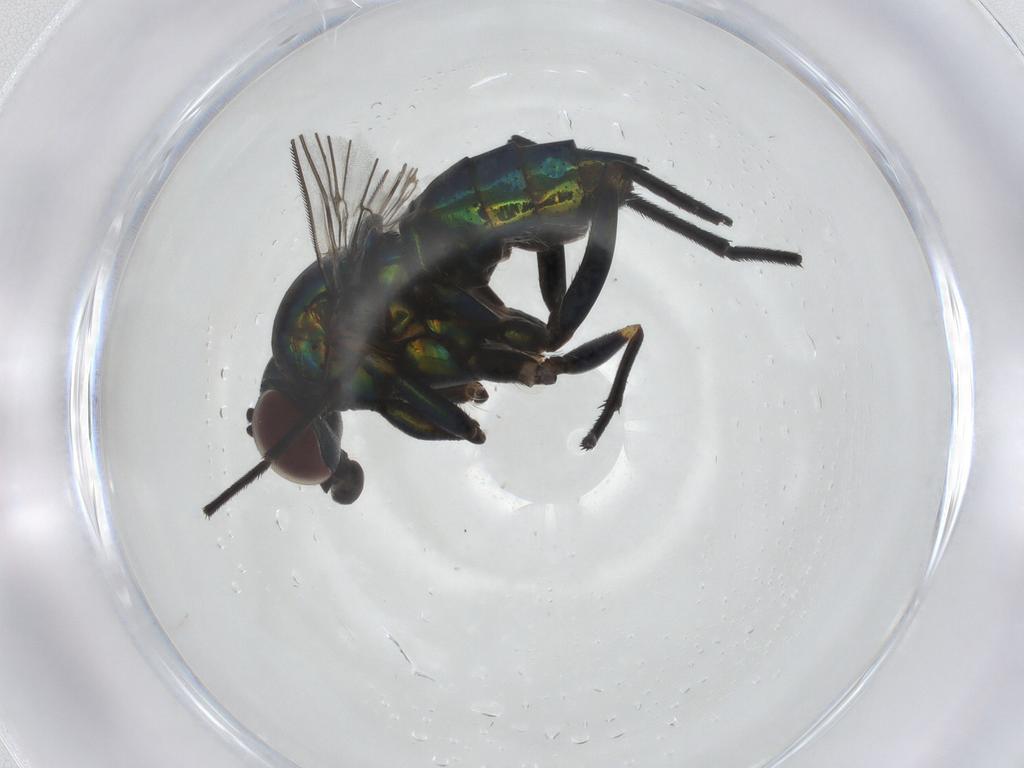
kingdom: Animalia
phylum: Arthropoda
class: Insecta
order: Diptera
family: Dolichopodidae
